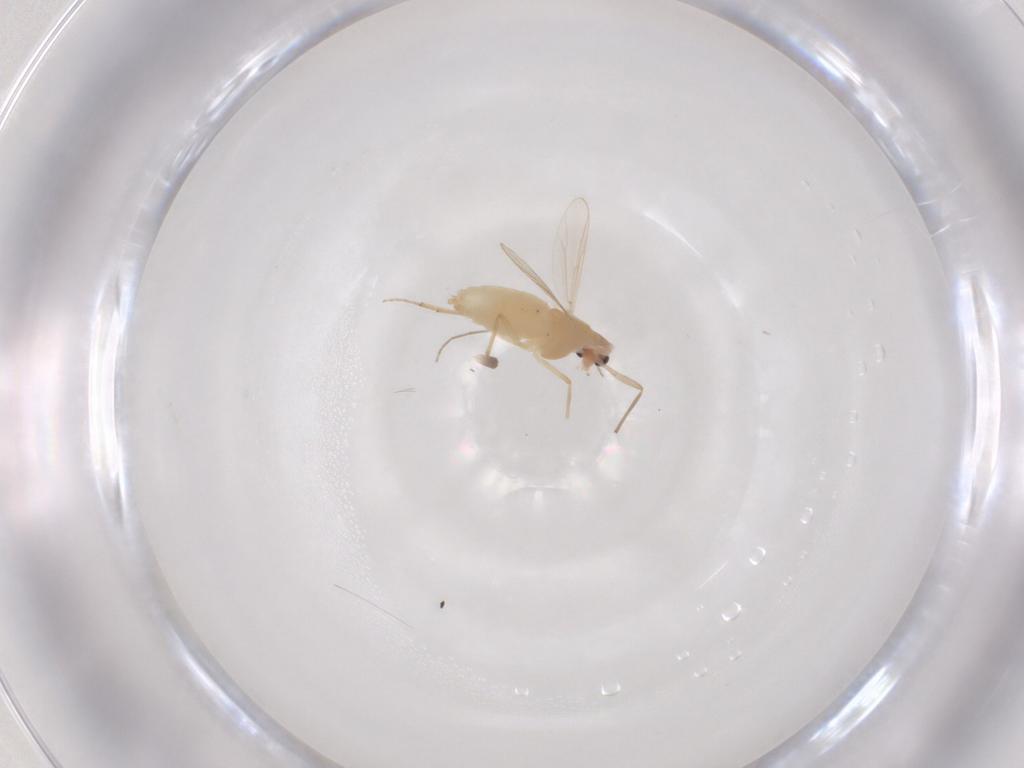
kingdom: Animalia
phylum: Arthropoda
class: Insecta
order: Diptera
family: Chironomidae
